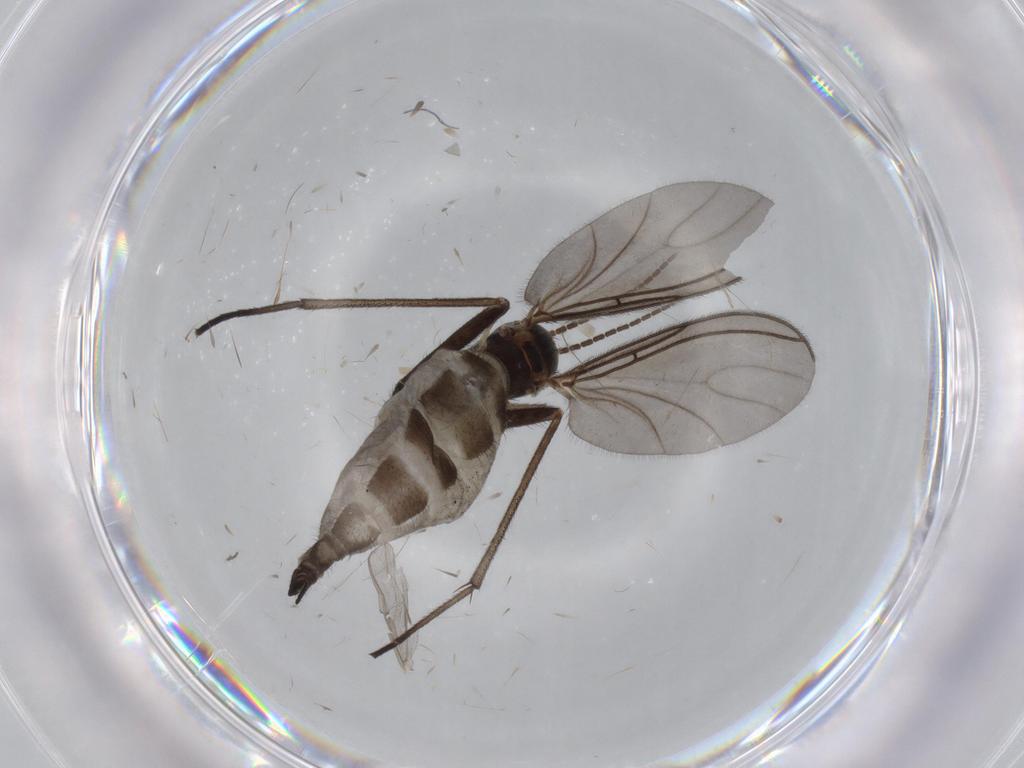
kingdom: Animalia
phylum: Arthropoda
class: Insecta
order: Diptera
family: Sciaridae
